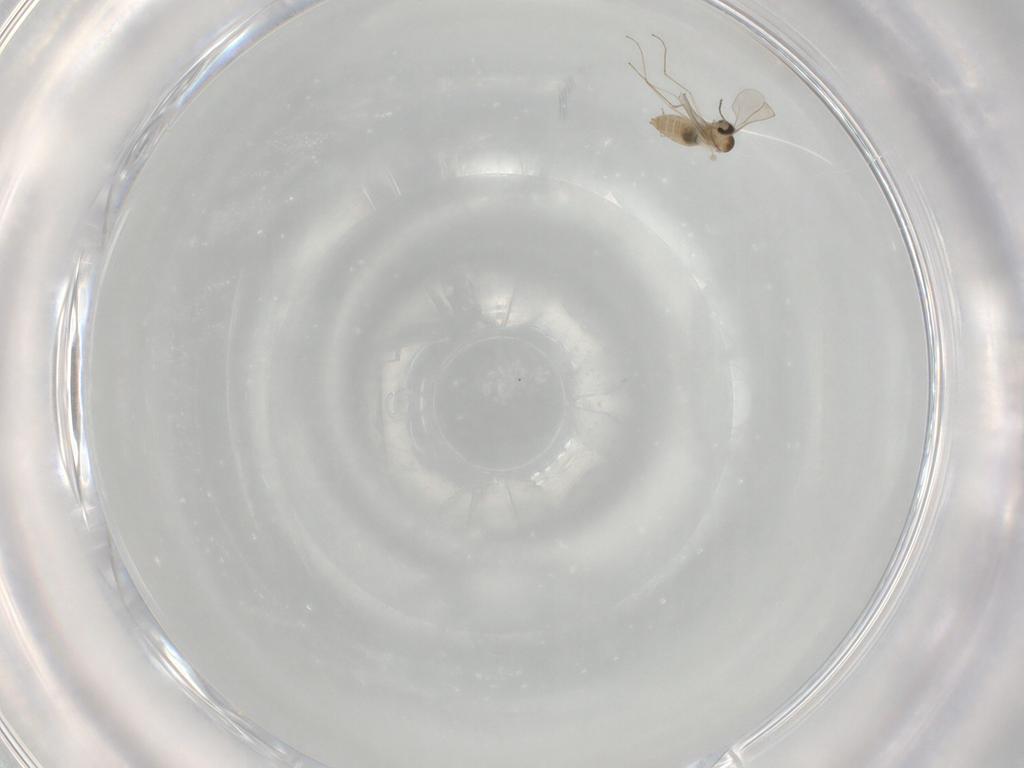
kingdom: Animalia
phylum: Arthropoda
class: Insecta
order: Diptera
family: Cecidomyiidae
